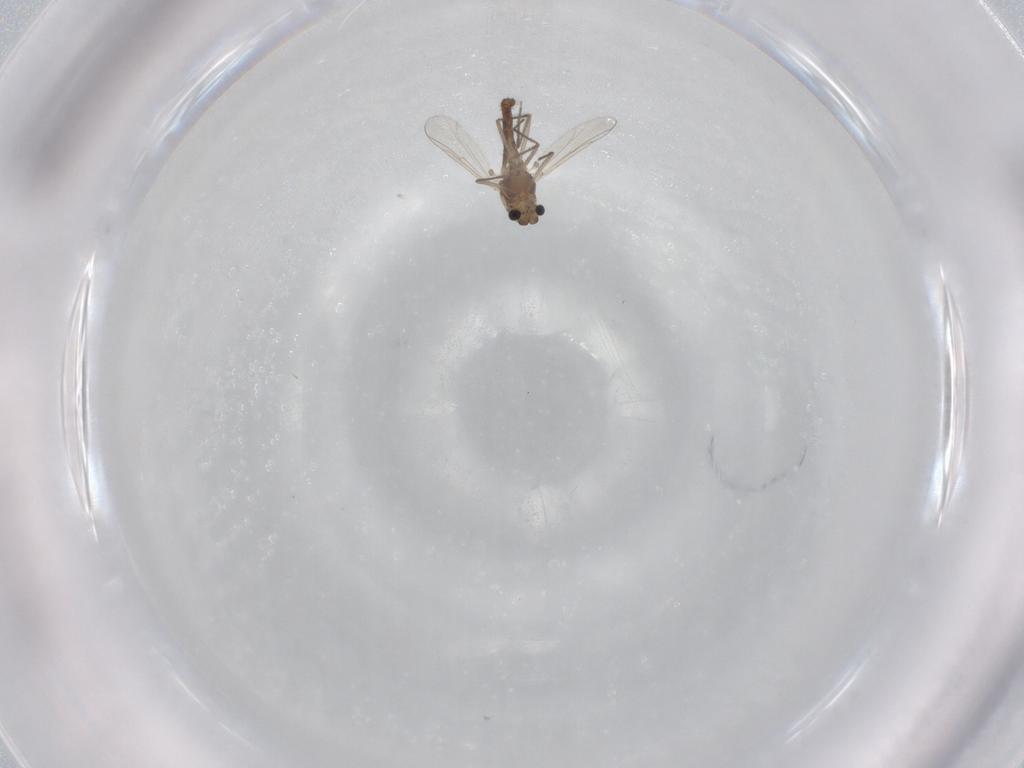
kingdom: Animalia
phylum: Arthropoda
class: Insecta
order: Diptera
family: Chironomidae
